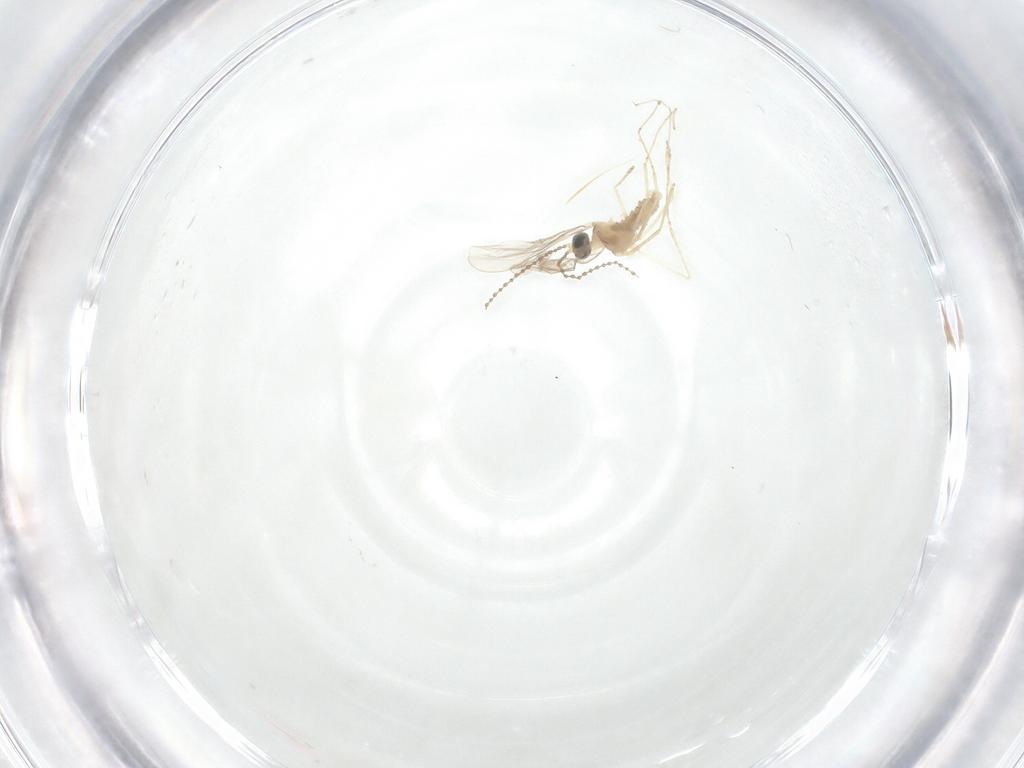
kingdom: Animalia
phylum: Arthropoda
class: Insecta
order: Diptera
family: Cecidomyiidae
